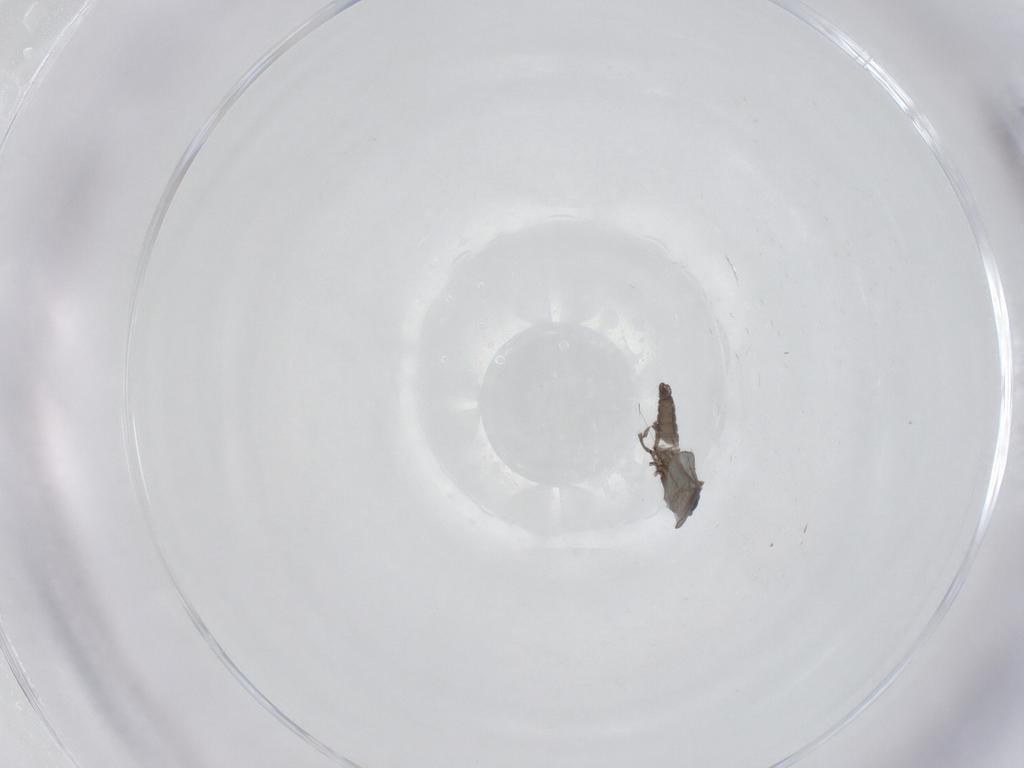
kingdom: Animalia
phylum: Arthropoda
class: Insecta
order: Diptera
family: Sciaridae
